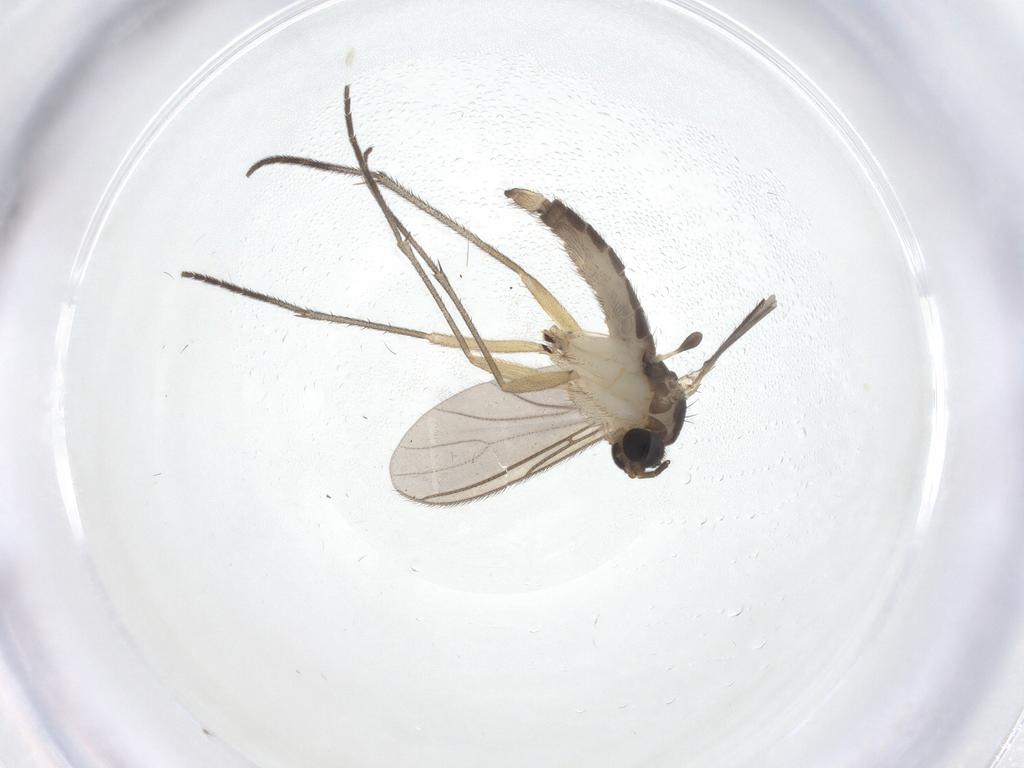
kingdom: Animalia
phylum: Arthropoda
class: Insecta
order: Diptera
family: Sciaridae
